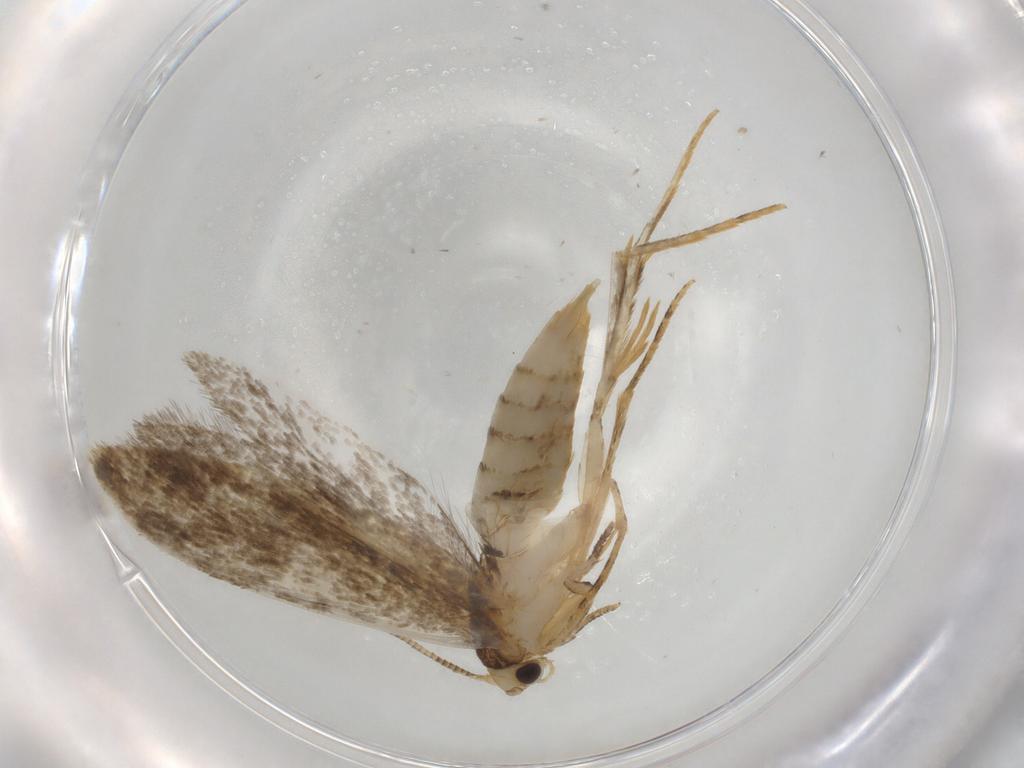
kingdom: Animalia
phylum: Arthropoda
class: Insecta
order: Lepidoptera
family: Tineidae
